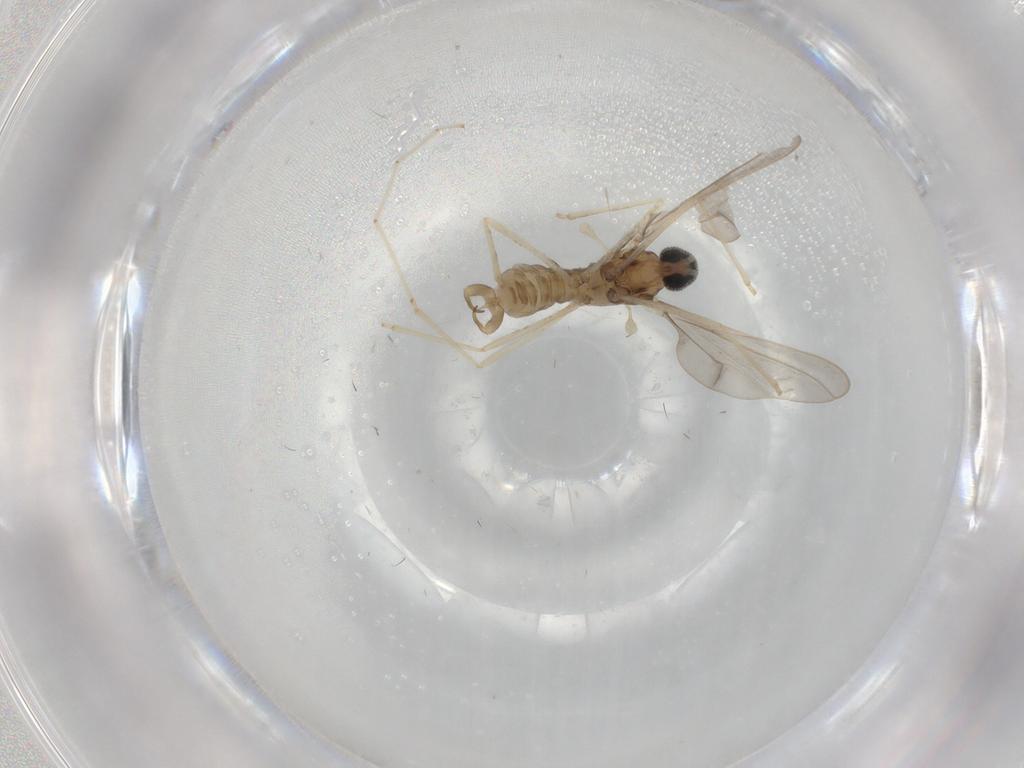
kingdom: Animalia
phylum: Arthropoda
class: Insecta
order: Diptera
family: Cecidomyiidae
